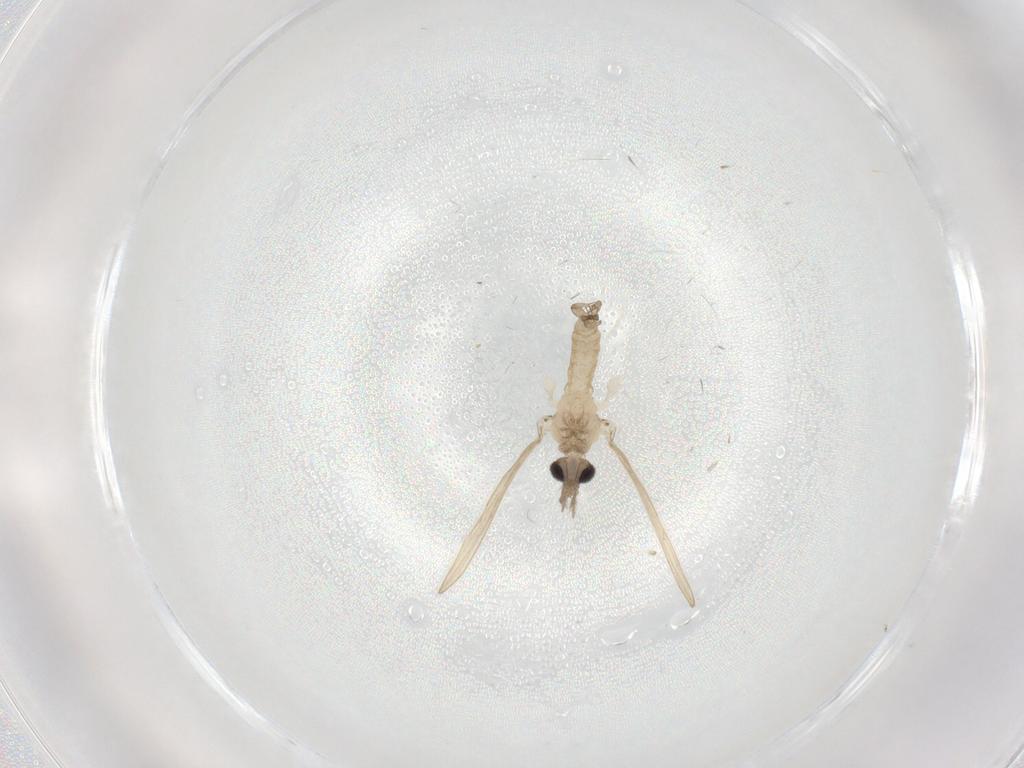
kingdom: Animalia
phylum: Arthropoda
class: Insecta
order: Diptera
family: Psychodidae
